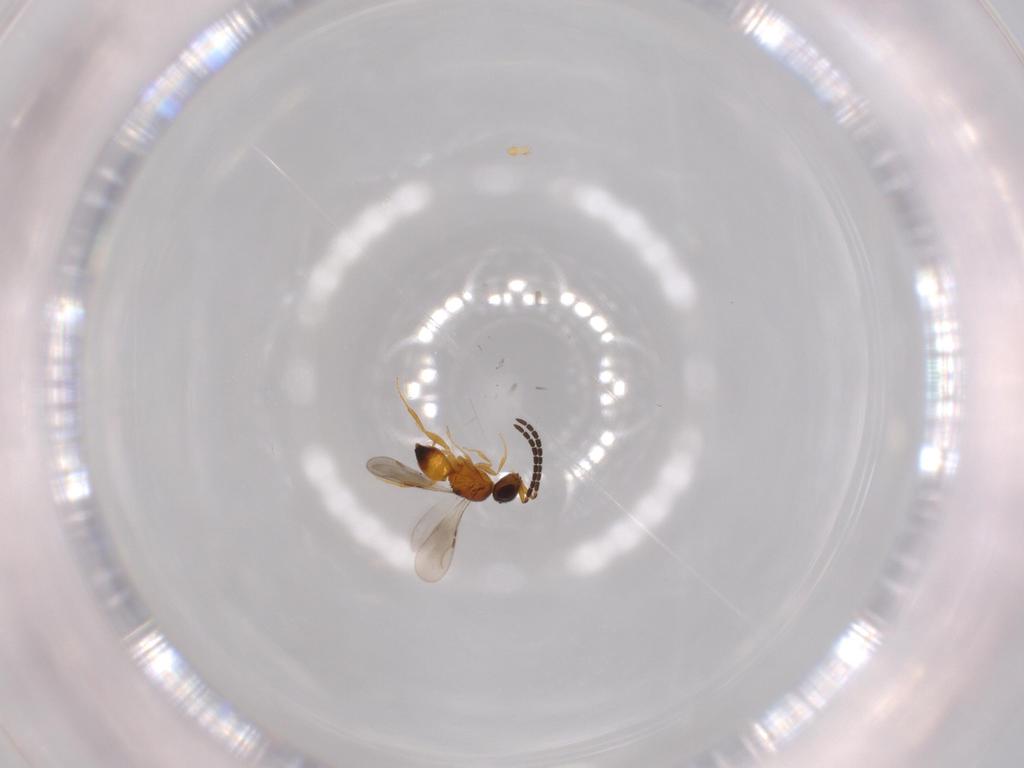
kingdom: Animalia
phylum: Arthropoda
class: Insecta
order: Hymenoptera
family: Ceraphronidae
